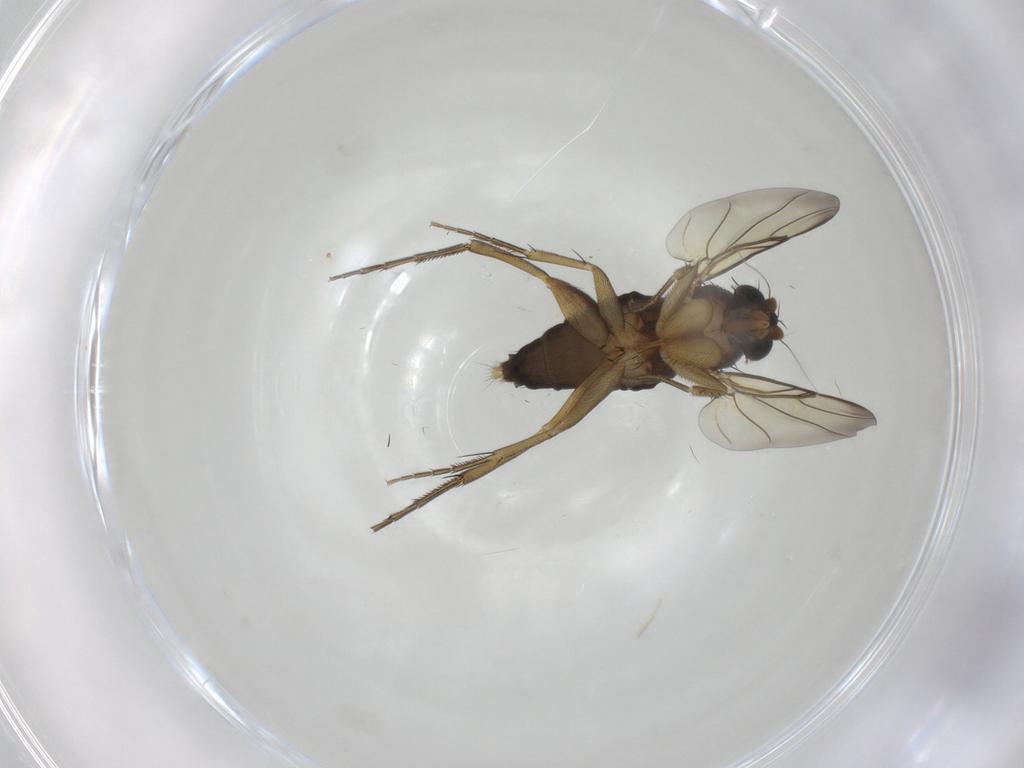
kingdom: Animalia
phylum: Arthropoda
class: Insecta
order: Diptera
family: Phoridae
